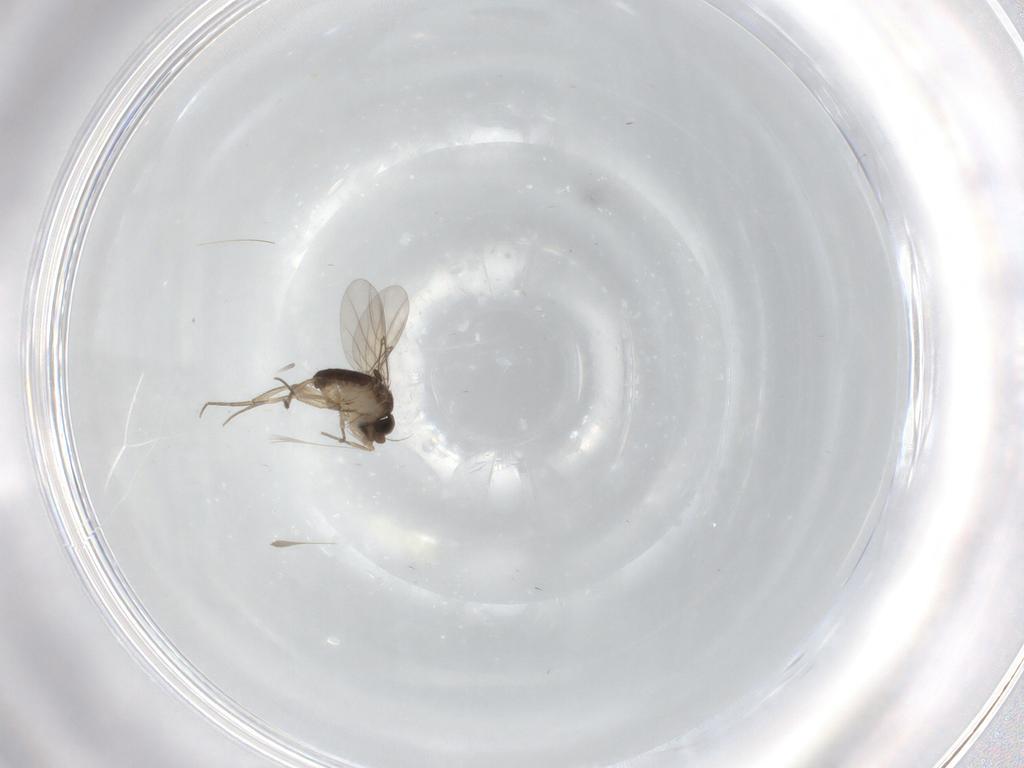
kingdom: Animalia
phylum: Arthropoda
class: Insecta
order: Diptera
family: Phoridae
